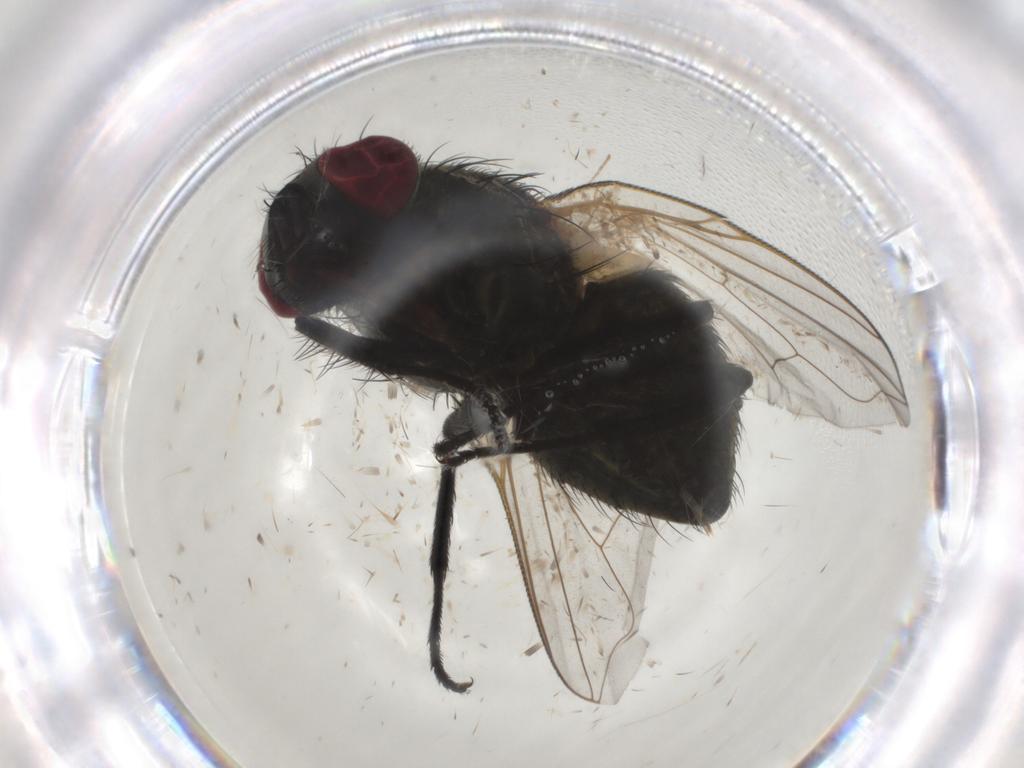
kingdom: Animalia
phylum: Arthropoda
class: Insecta
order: Diptera
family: Muscidae
